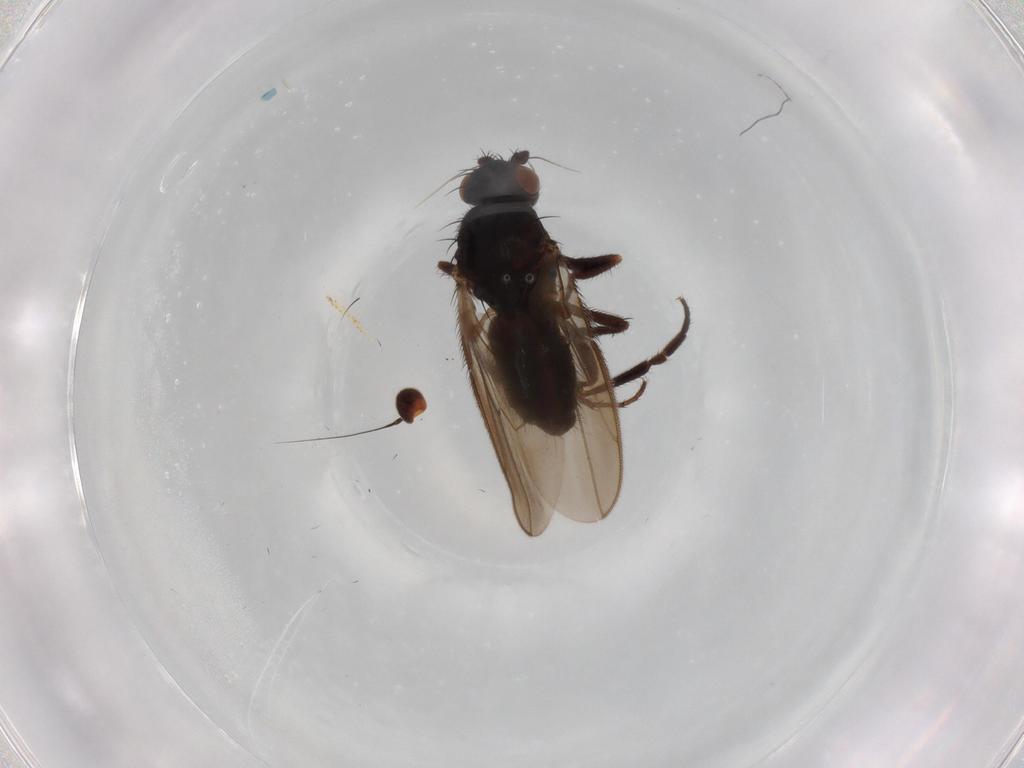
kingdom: Animalia
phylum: Arthropoda
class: Insecta
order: Diptera
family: Sphaeroceridae
